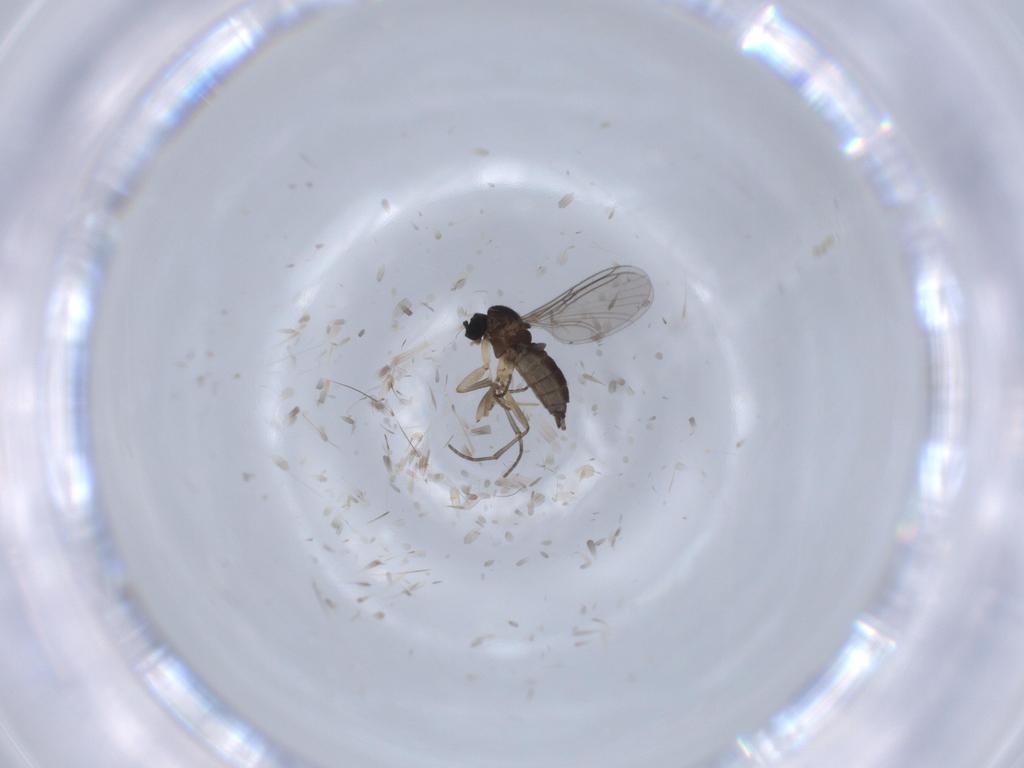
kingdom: Animalia
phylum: Arthropoda
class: Insecta
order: Diptera
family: Sciaridae
